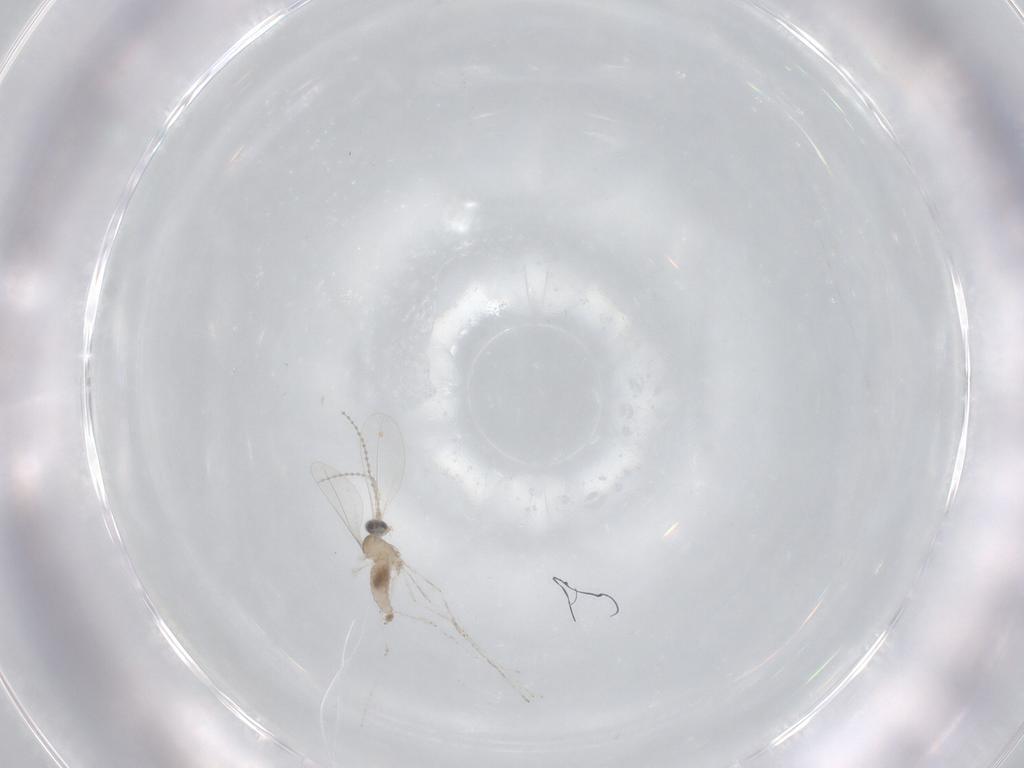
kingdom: Animalia
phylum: Arthropoda
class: Insecta
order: Diptera
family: Cecidomyiidae
